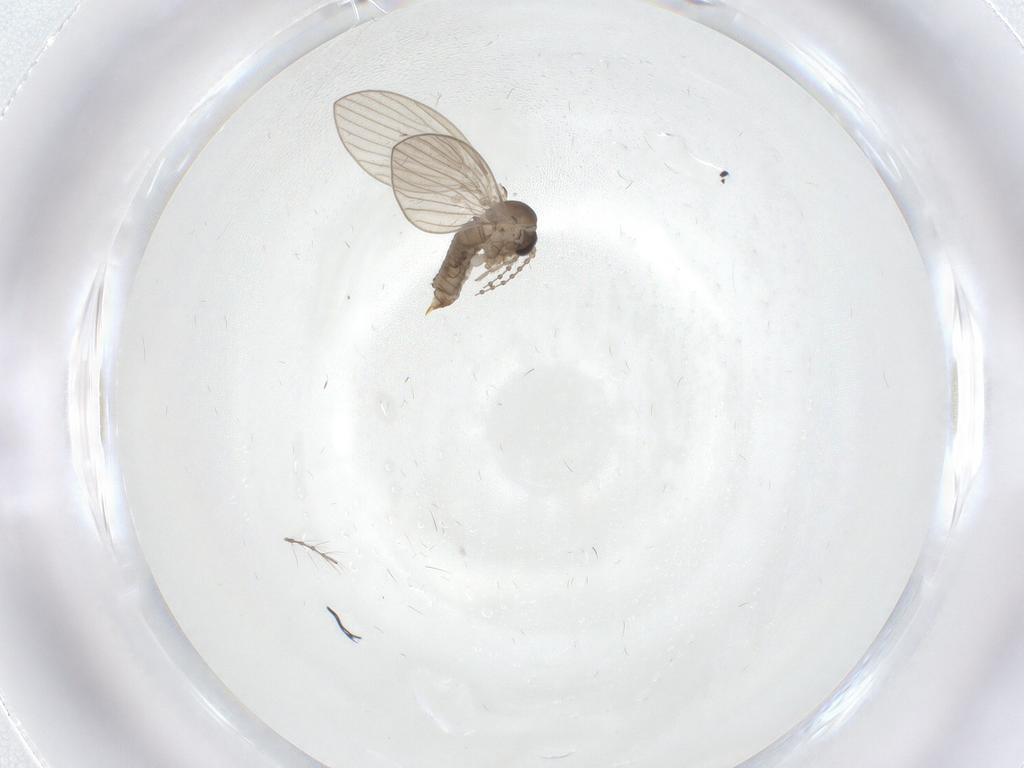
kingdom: Animalia
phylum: Arthropoda
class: Insecta
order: Diptera
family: Psychodidae
